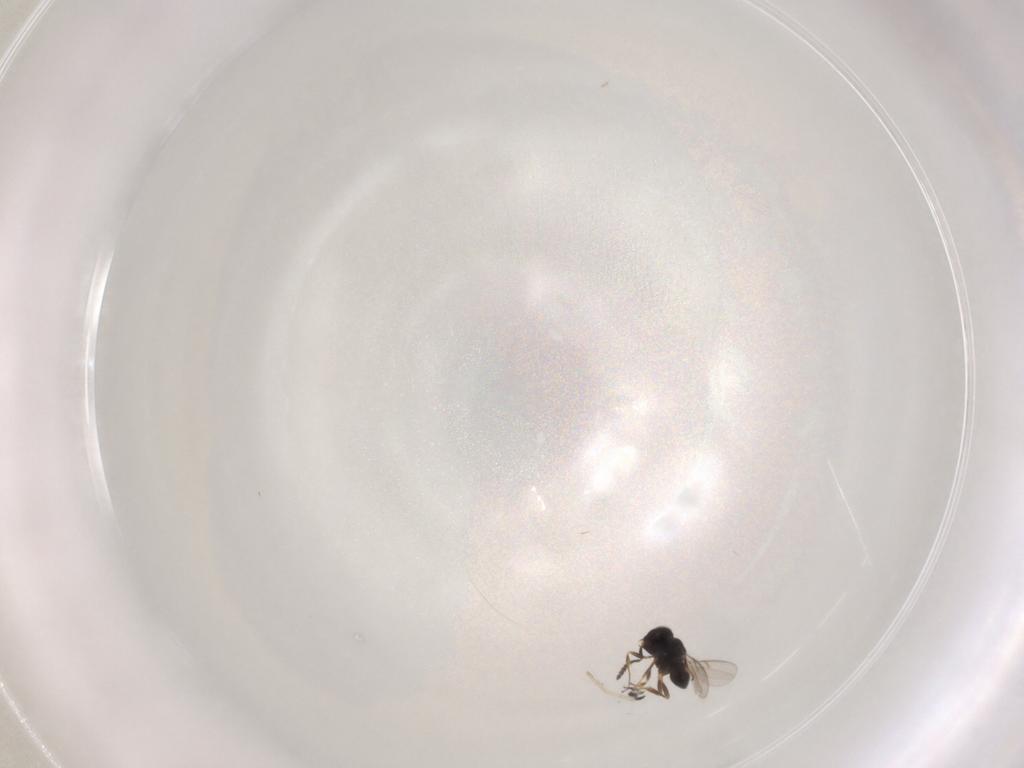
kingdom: Animalia
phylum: Arthropoda
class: Insecta
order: Hymenoptera
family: Scelionidae
